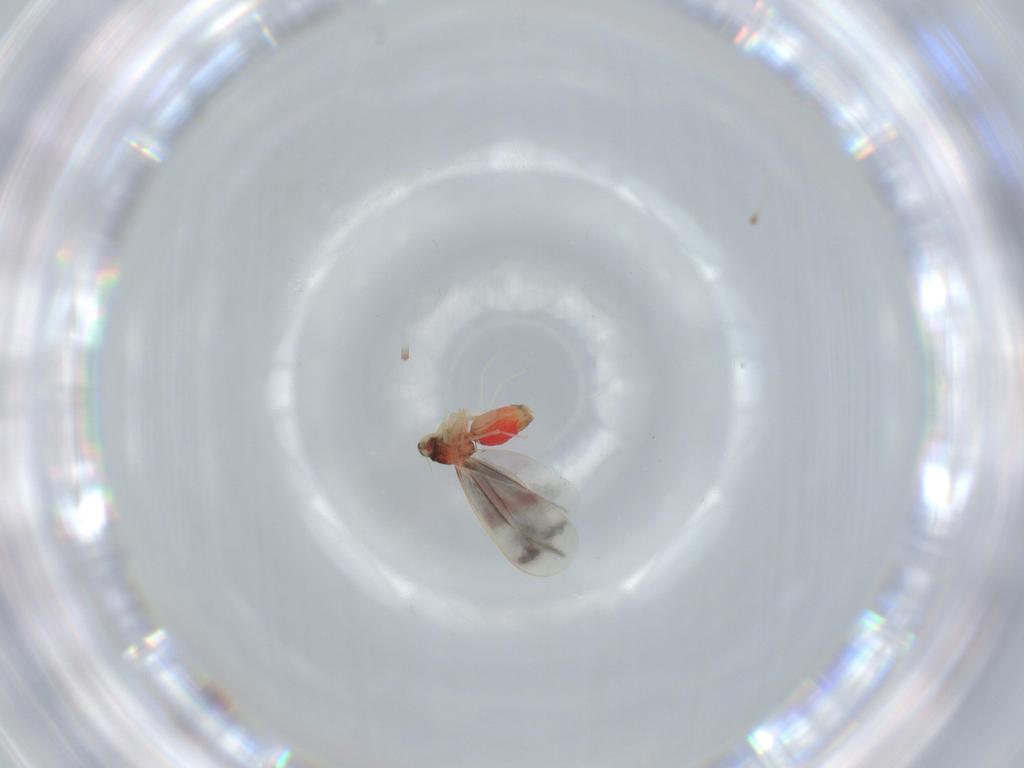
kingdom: Animalia
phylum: Arthropoda
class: Insecta
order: Hemiptera
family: Aleyrodidae
